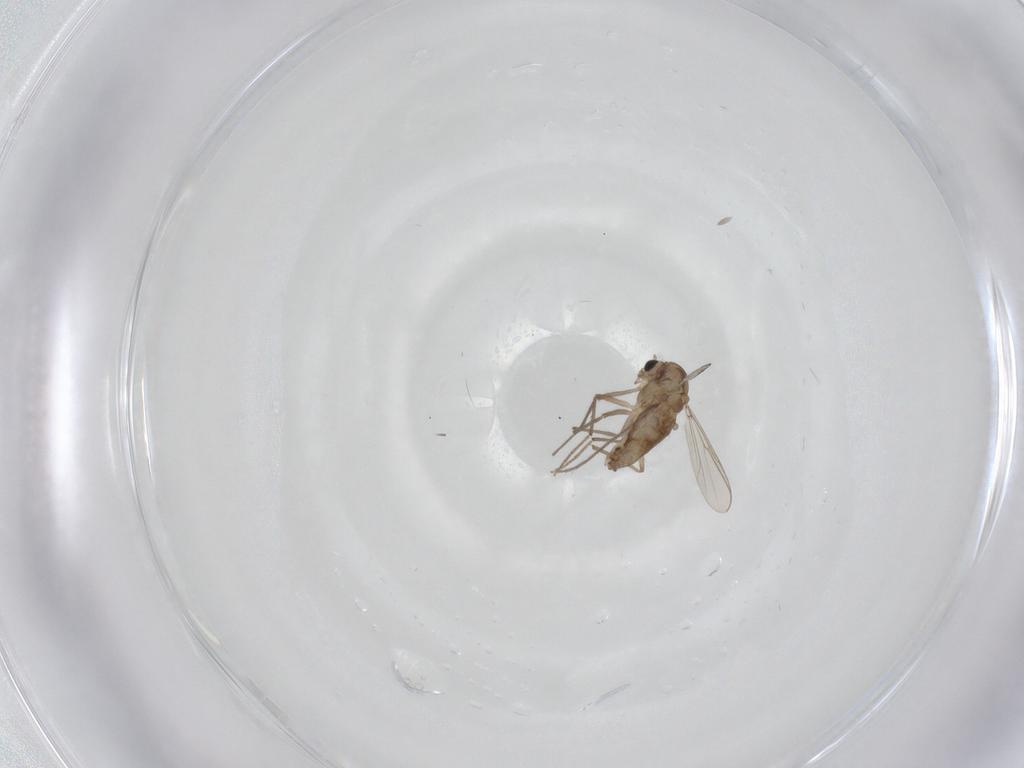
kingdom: Animalia
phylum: Arthropoda
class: Insecta
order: Diptera
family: Chironomidae
